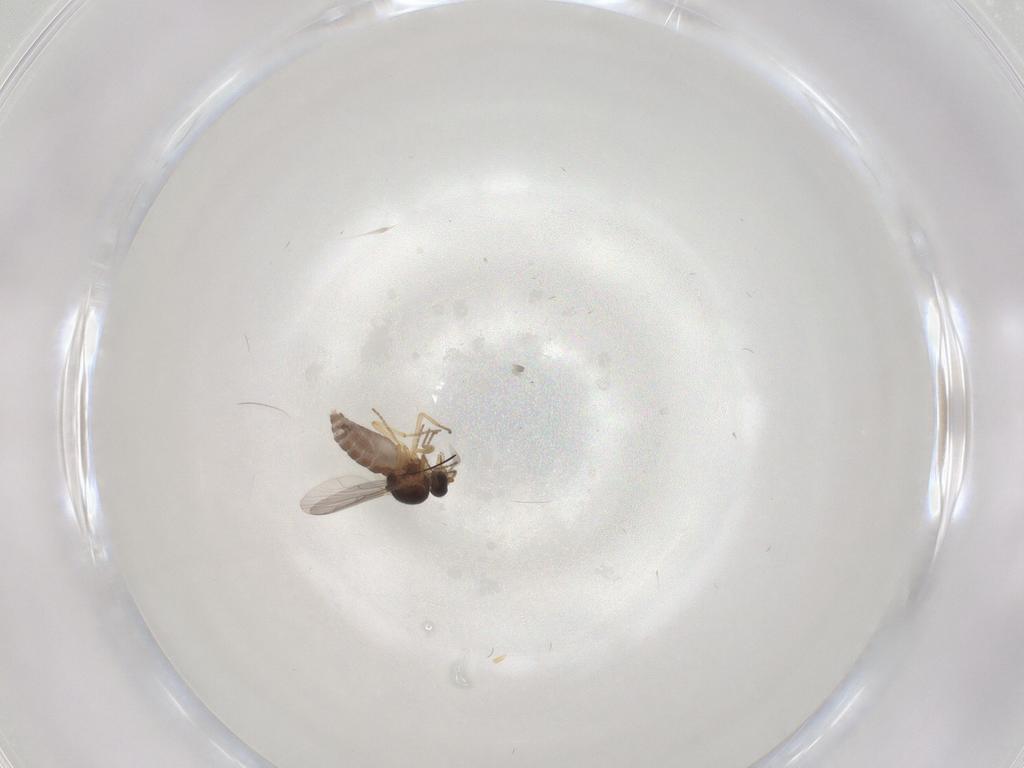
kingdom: Animalia
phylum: Arthropoda
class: Insecta
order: Diptera
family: Ceratopogonidae
